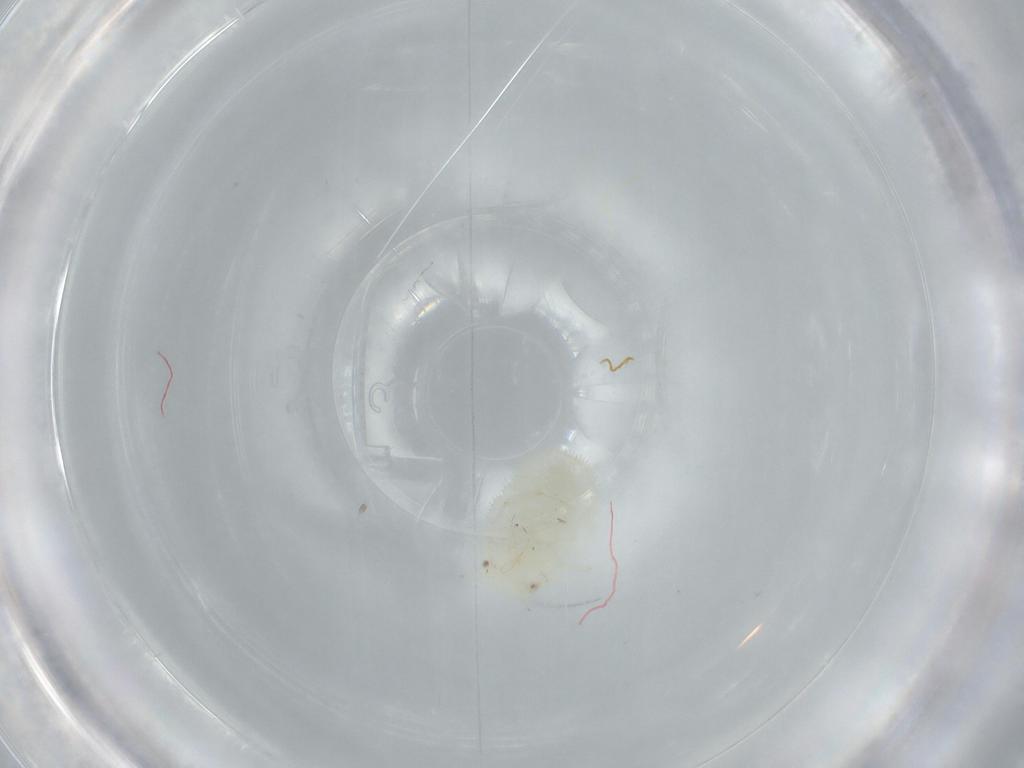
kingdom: Animalia
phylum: Arthropoda
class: Insecta
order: Hemiptera
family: Triozidae
